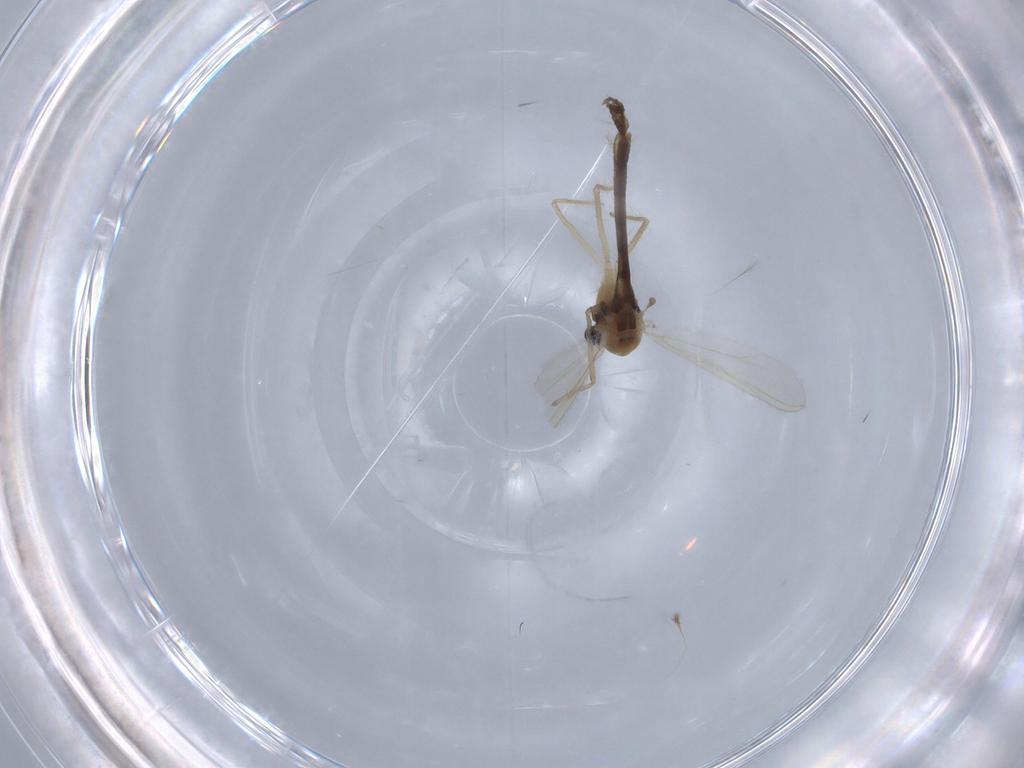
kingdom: Animalia
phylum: Arthropoda
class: Insecta
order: Diptera
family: Chironomidae
